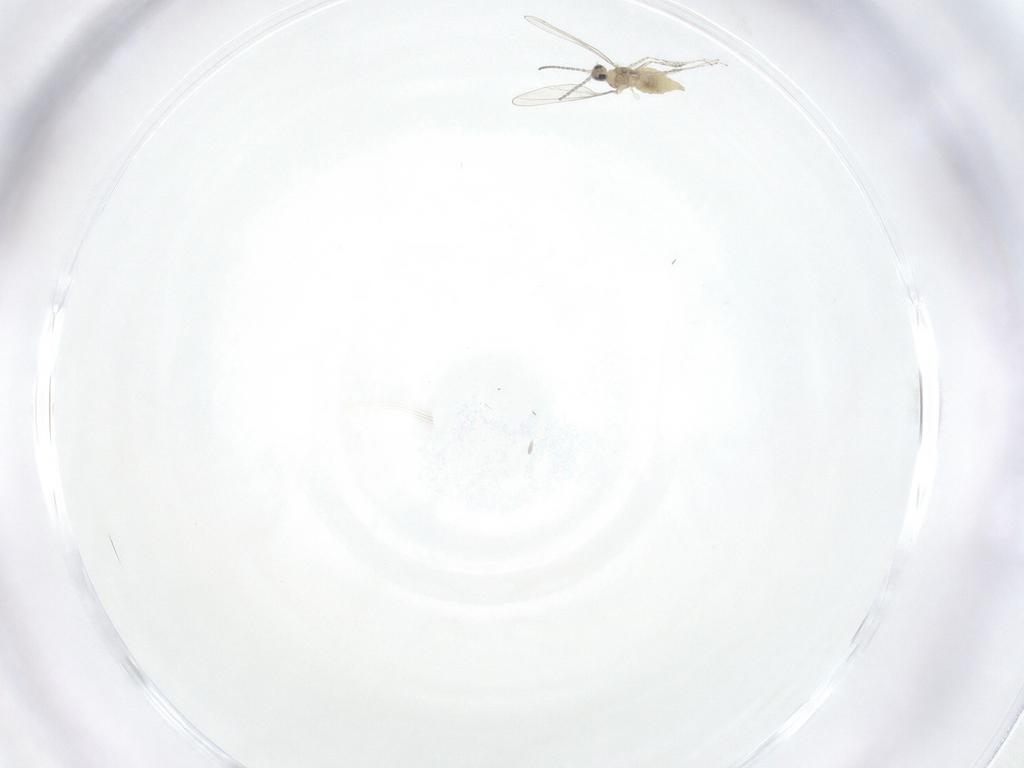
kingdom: Animalia
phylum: Arthropoda
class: Insecta
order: Diptera
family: Cecidomyiidae
